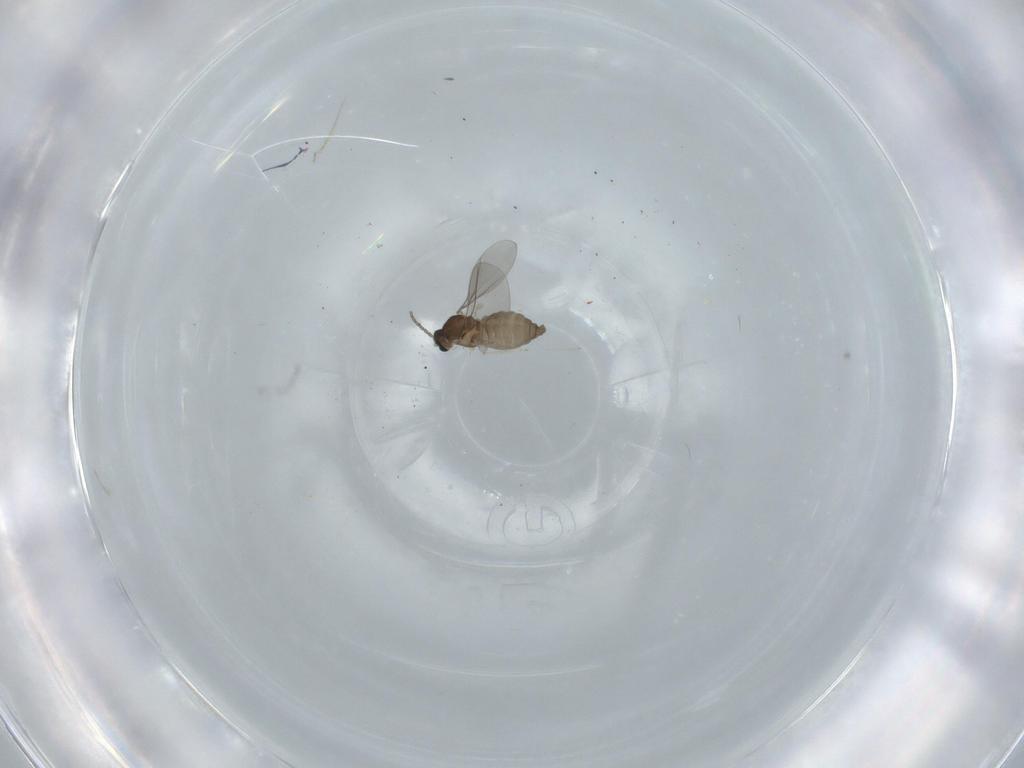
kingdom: Animalia
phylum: Arthropoda
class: Insecta
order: Diptera
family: Cecidomyiidae
